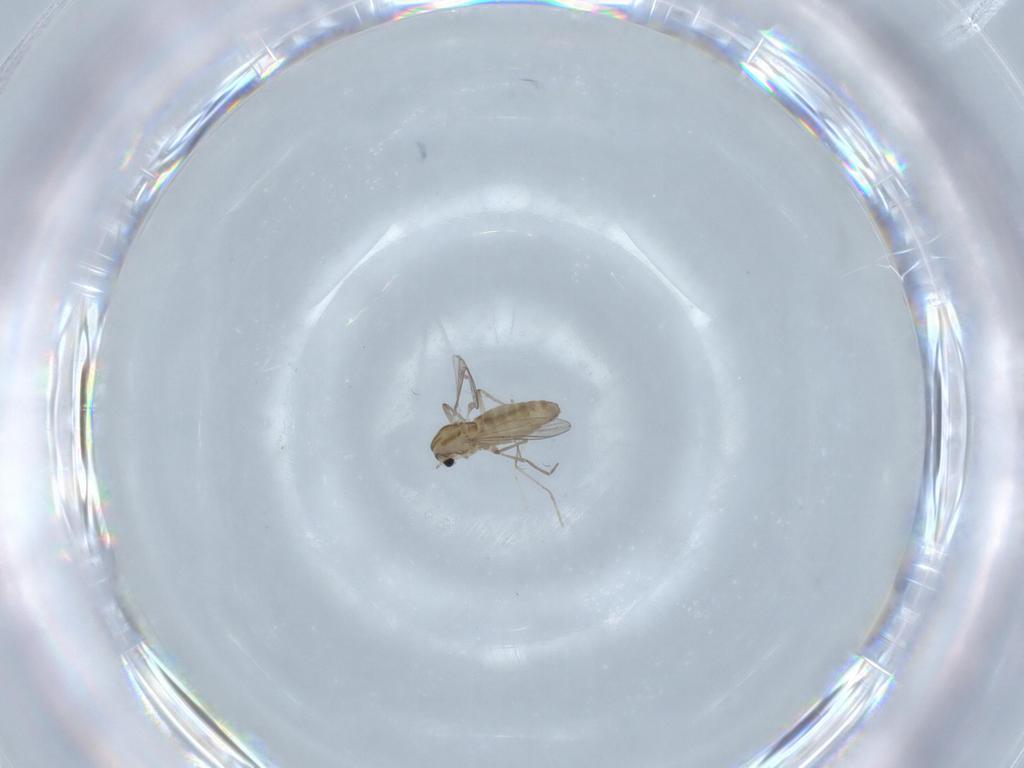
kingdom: Animalia
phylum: Arthropoda
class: Insecta
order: Diptera
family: Cecidomyiidae
